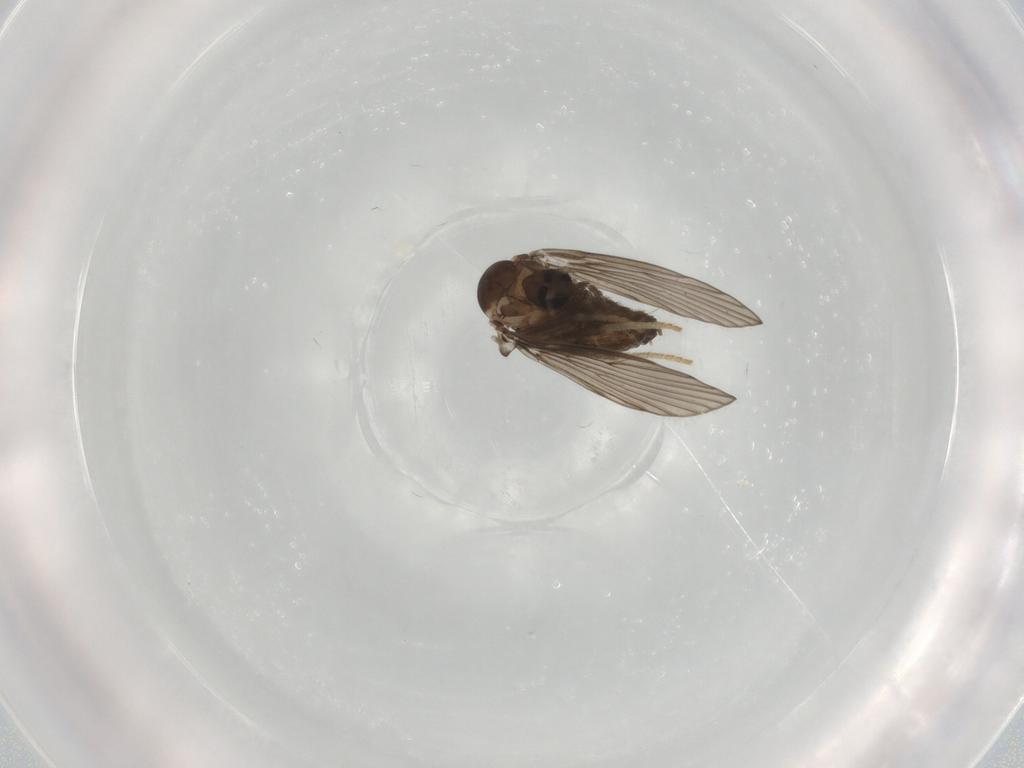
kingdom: Animalia
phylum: Arthropoda
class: Insecta
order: Diptera
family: Psychodidae
